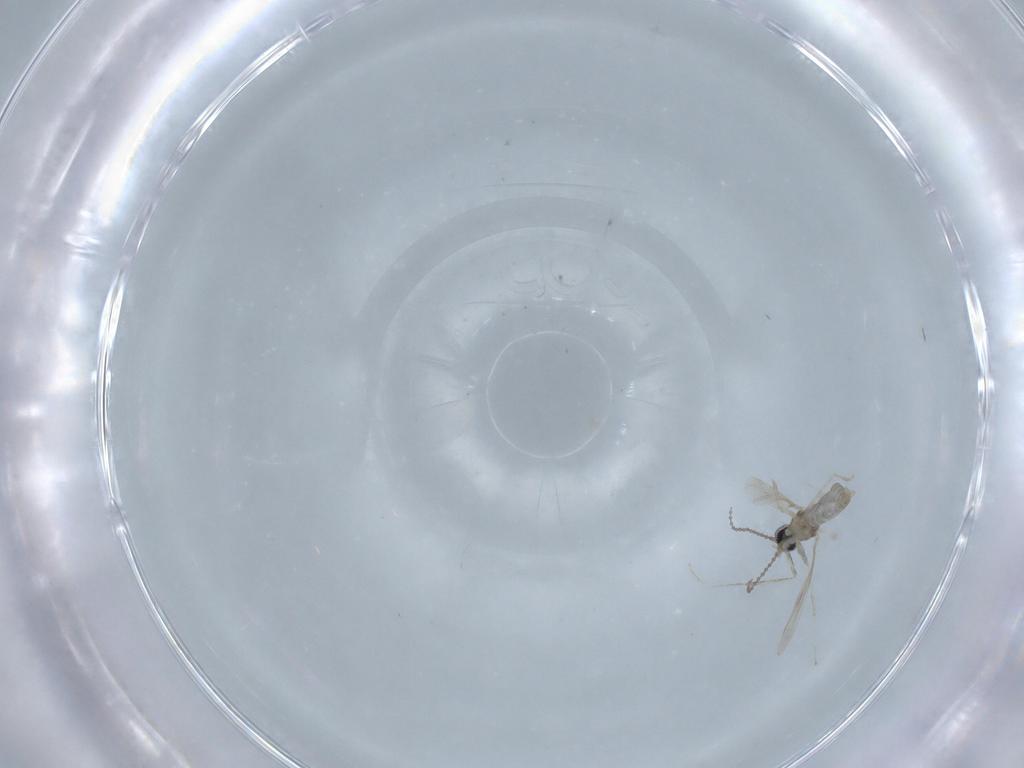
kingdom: Animalia
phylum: Arthropoda
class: Insecta
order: Diptera
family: Cecidomyiidae
